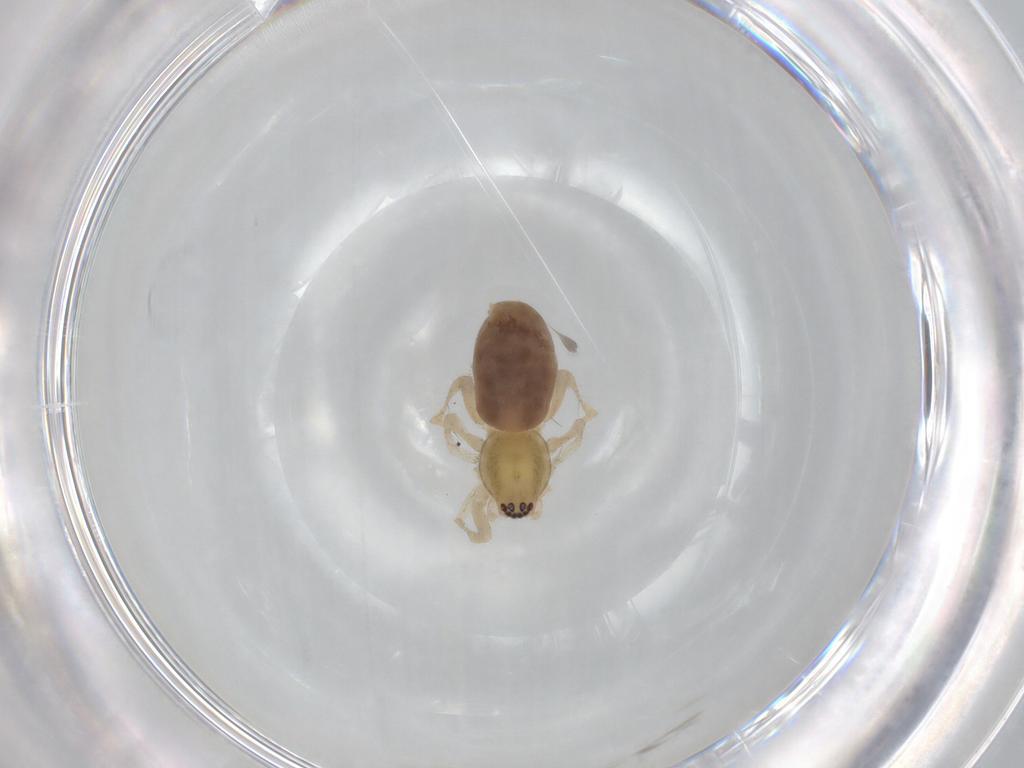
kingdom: Animalia
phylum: Arthropoda
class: Arachnida
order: Araneae
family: Anyphaenidae
